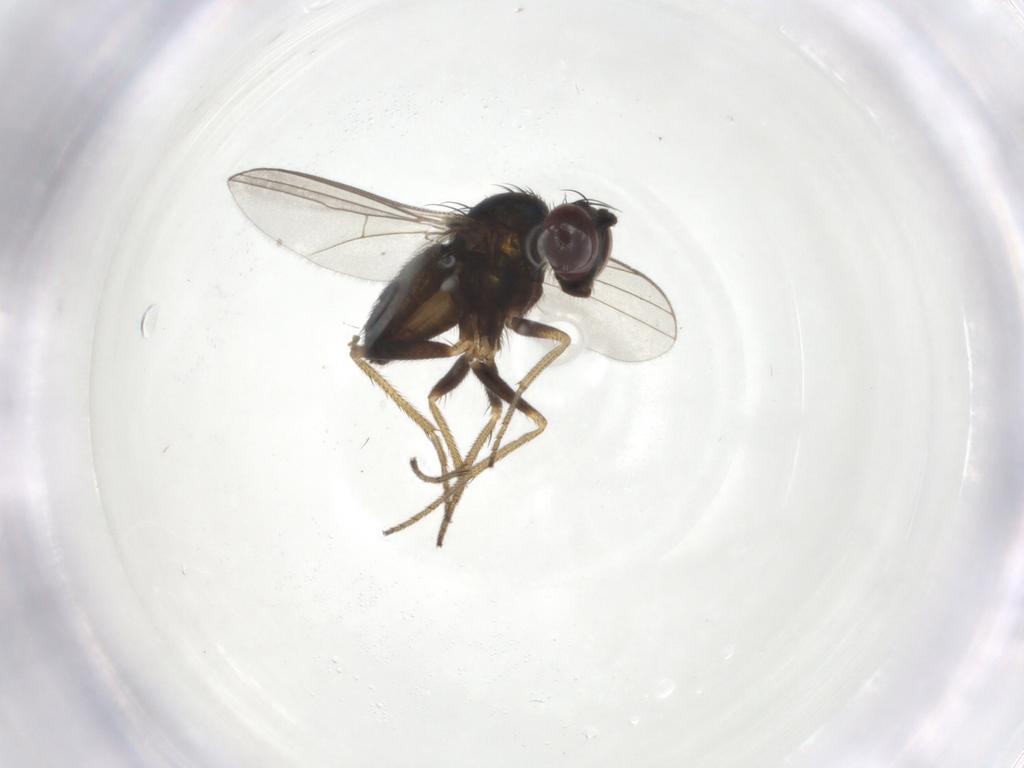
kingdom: Animalia
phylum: Arthropoda
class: Insecta
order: Diptera
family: Dolichopodidae
